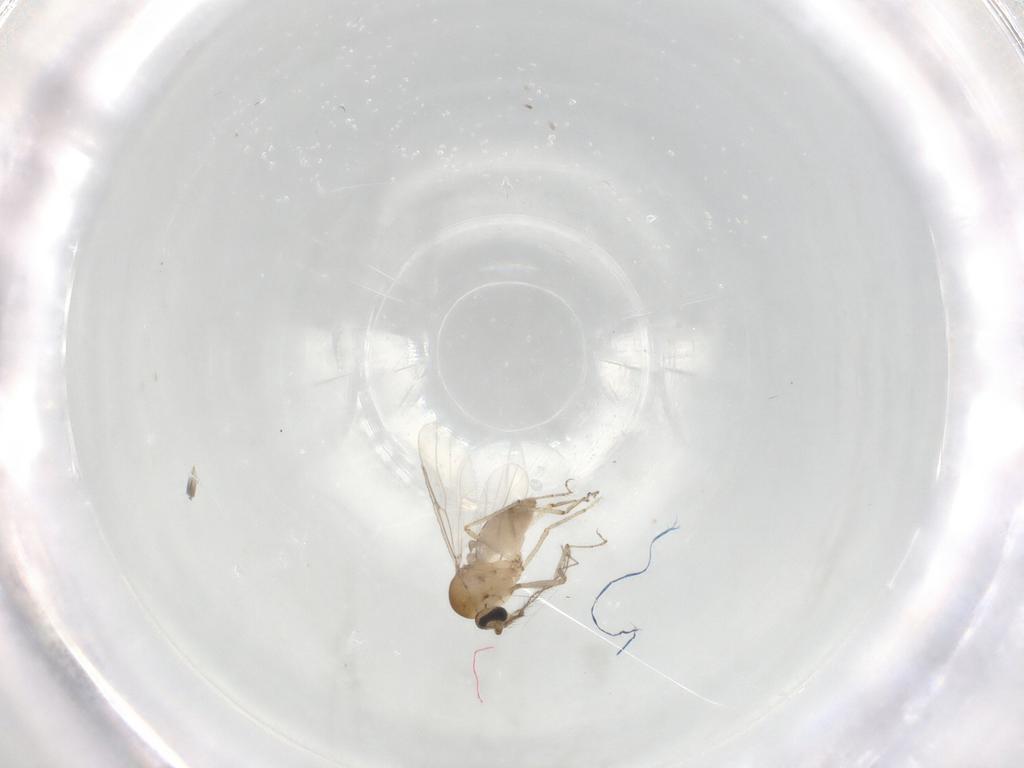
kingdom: Animalia
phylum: Arthropoda
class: Insecta
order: Diptera
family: Ceratopogonidae
